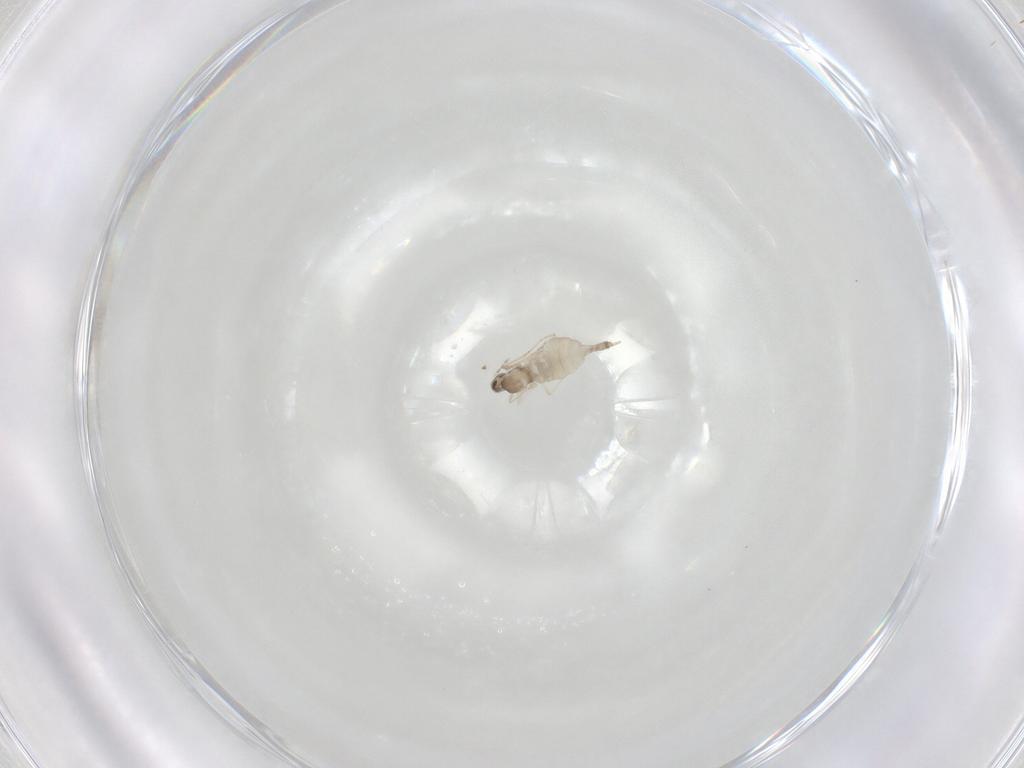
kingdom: Animalia
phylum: Arthropoda
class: Insecta
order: Diptera
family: Cecidomyiidae
